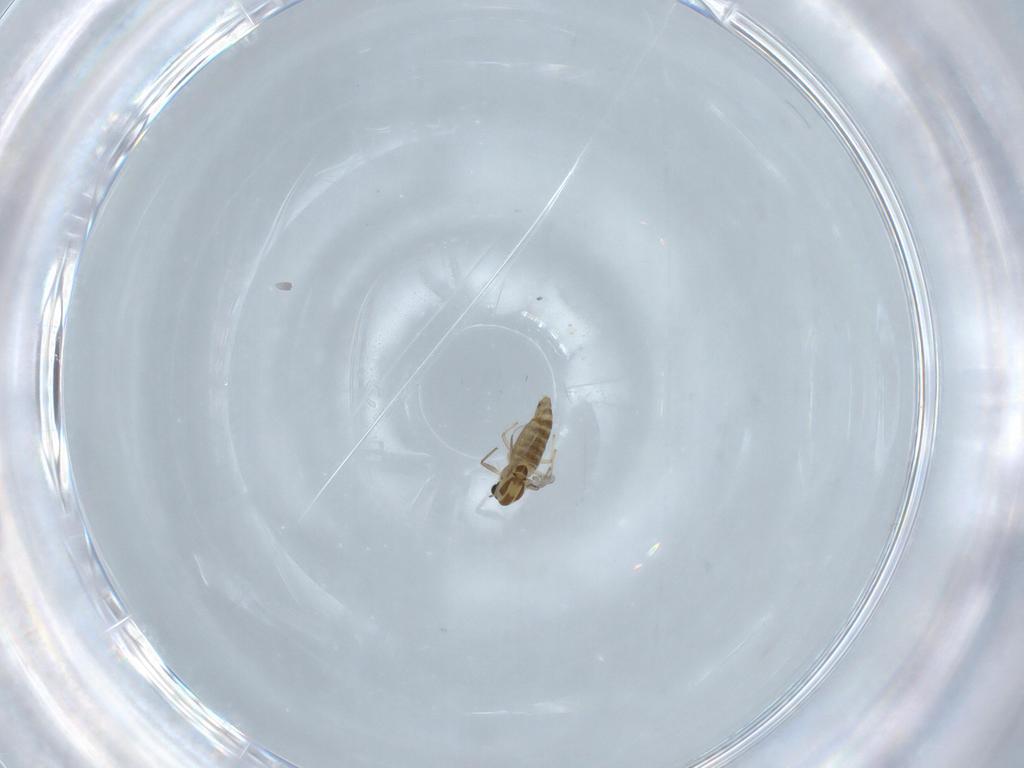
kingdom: Animalia
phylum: Arthropoda
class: Insecta
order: Diptera
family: Chironomidae
